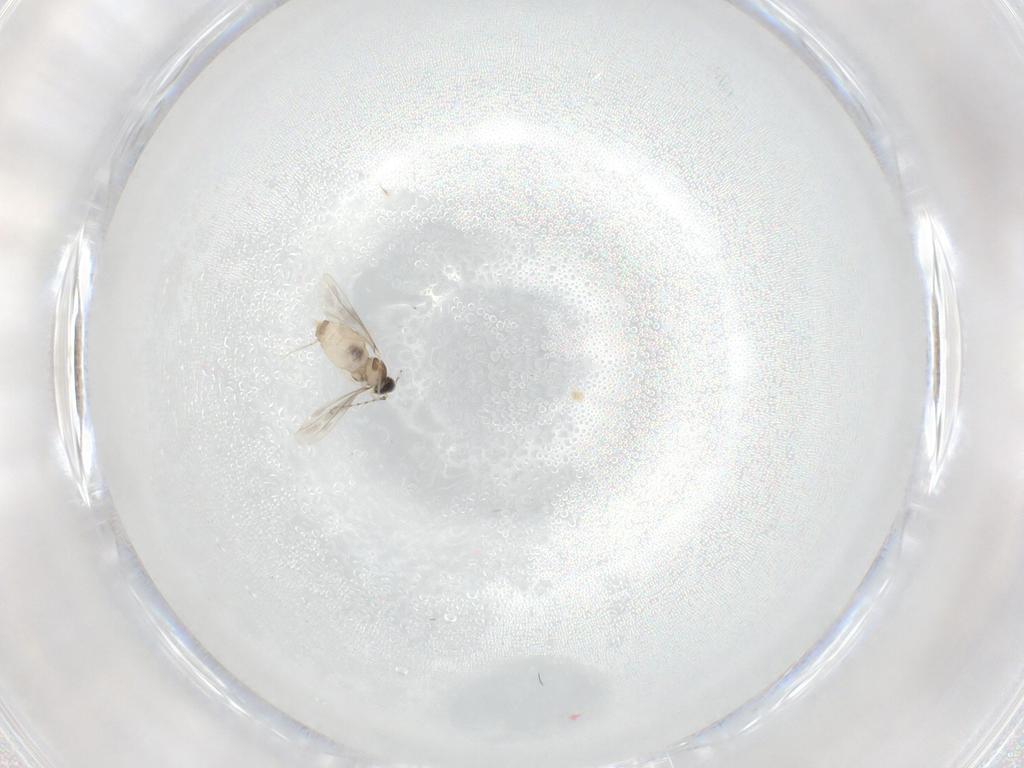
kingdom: Animalia
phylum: Arthropoda
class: Insecta
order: Diptera
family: Cecidomyiidae
